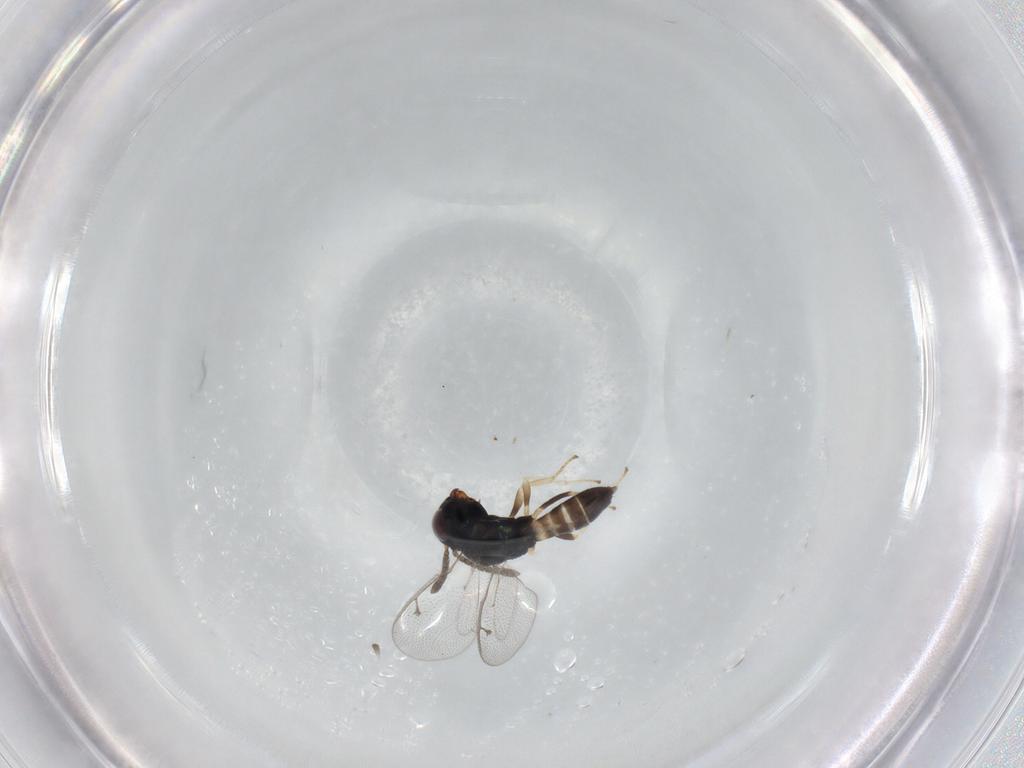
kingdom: Animalia
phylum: Arthropoda
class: Insecta
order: Hymenoptera
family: Pteromalidae
